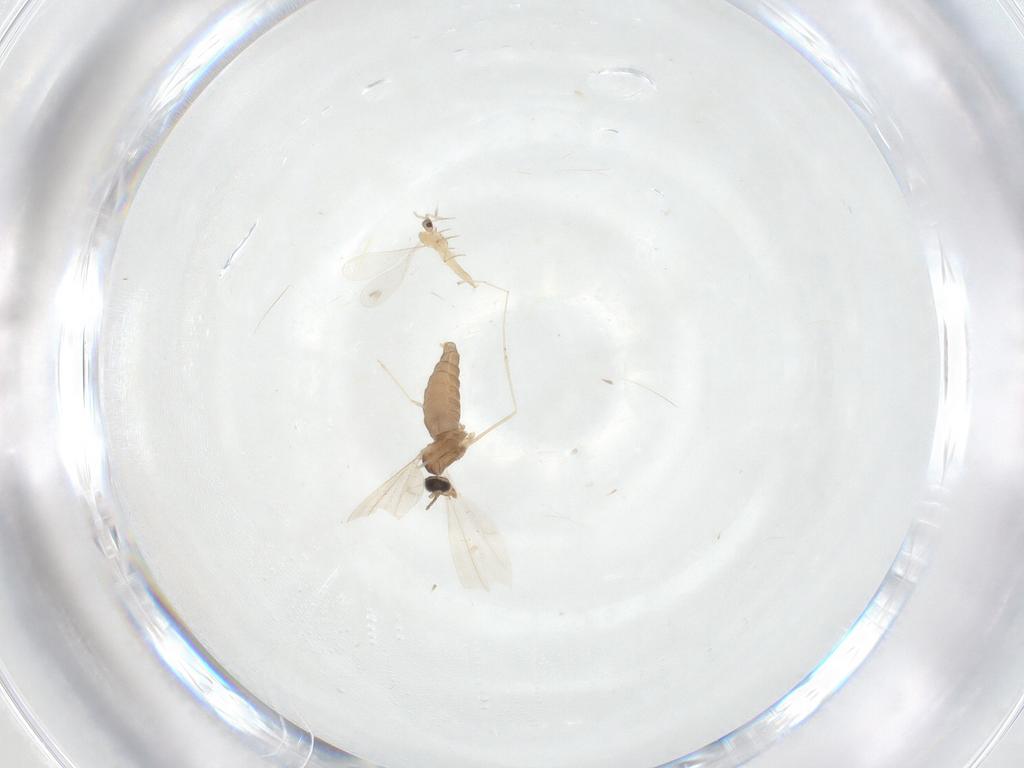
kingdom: Animalia
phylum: Arthropoda
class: Insecta
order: Diptera
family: Cecidomyiidae
